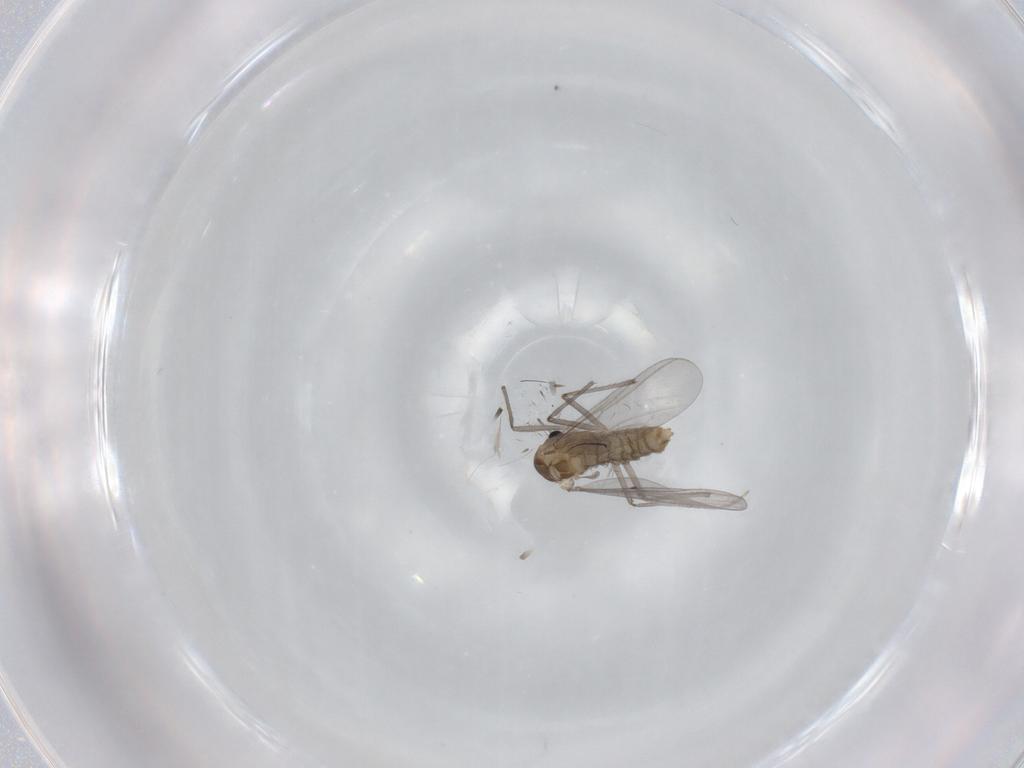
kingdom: Animalia
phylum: Arthropoda
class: Insecta
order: Diptera
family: Chironomidae
